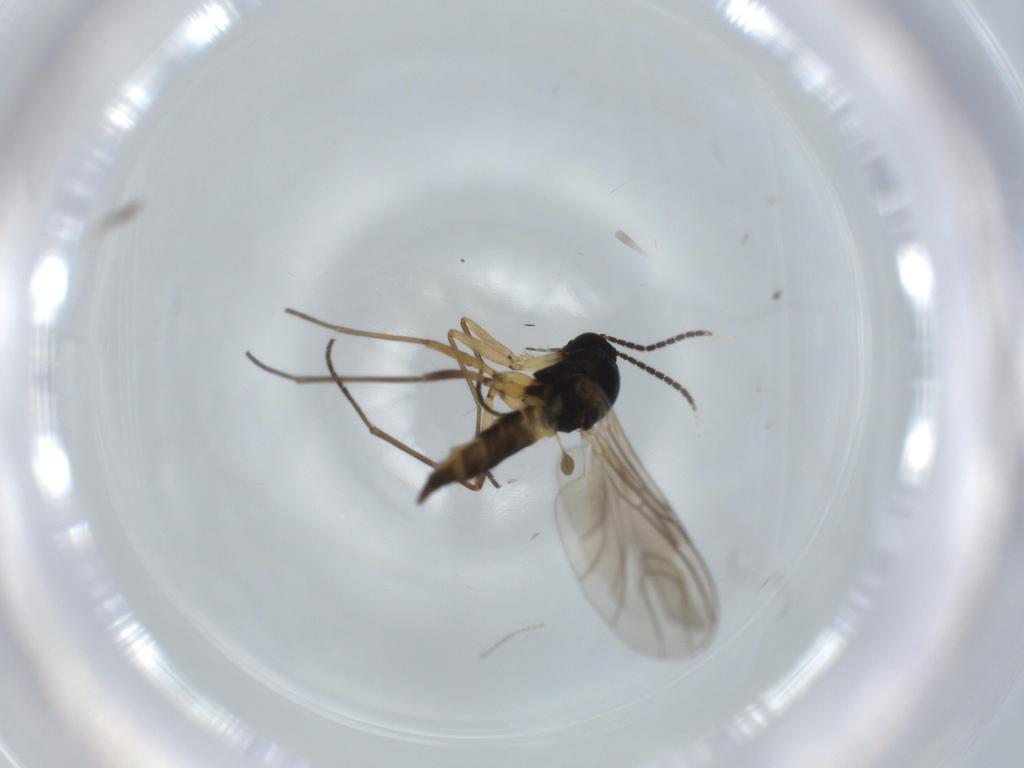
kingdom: Animalia
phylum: Arthropoda
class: Insecta
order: Diptera
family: Sciaridae
